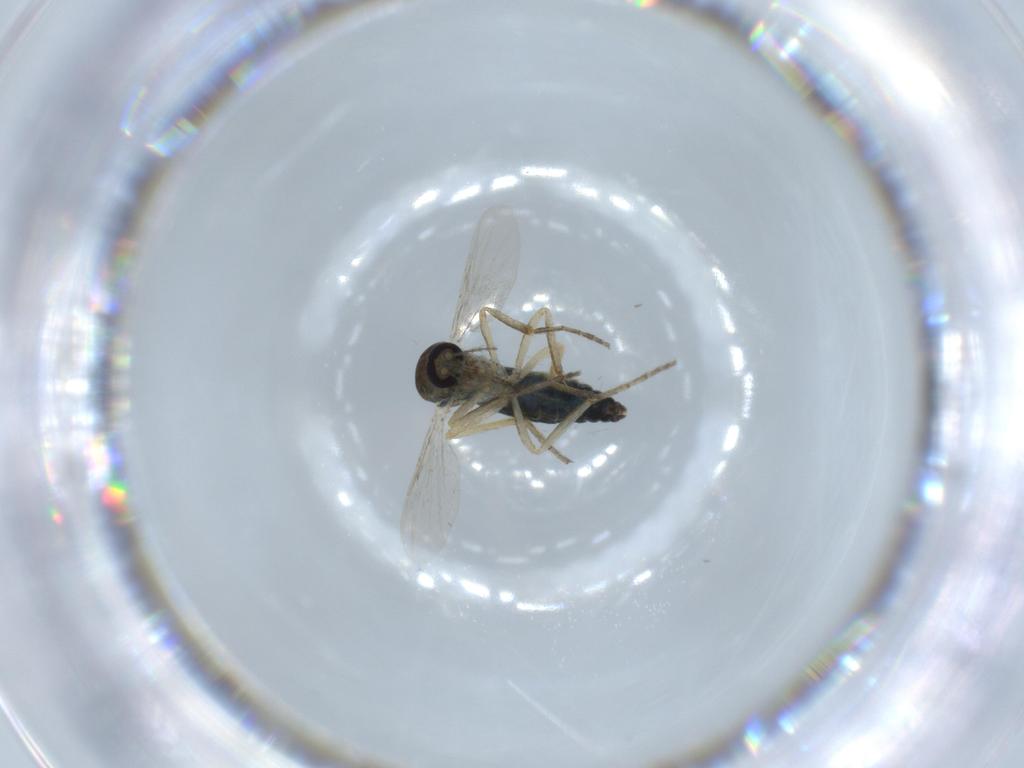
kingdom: Animalia
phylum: Arthropoda
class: Insecta
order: Diptera
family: Ceratopogonidae
